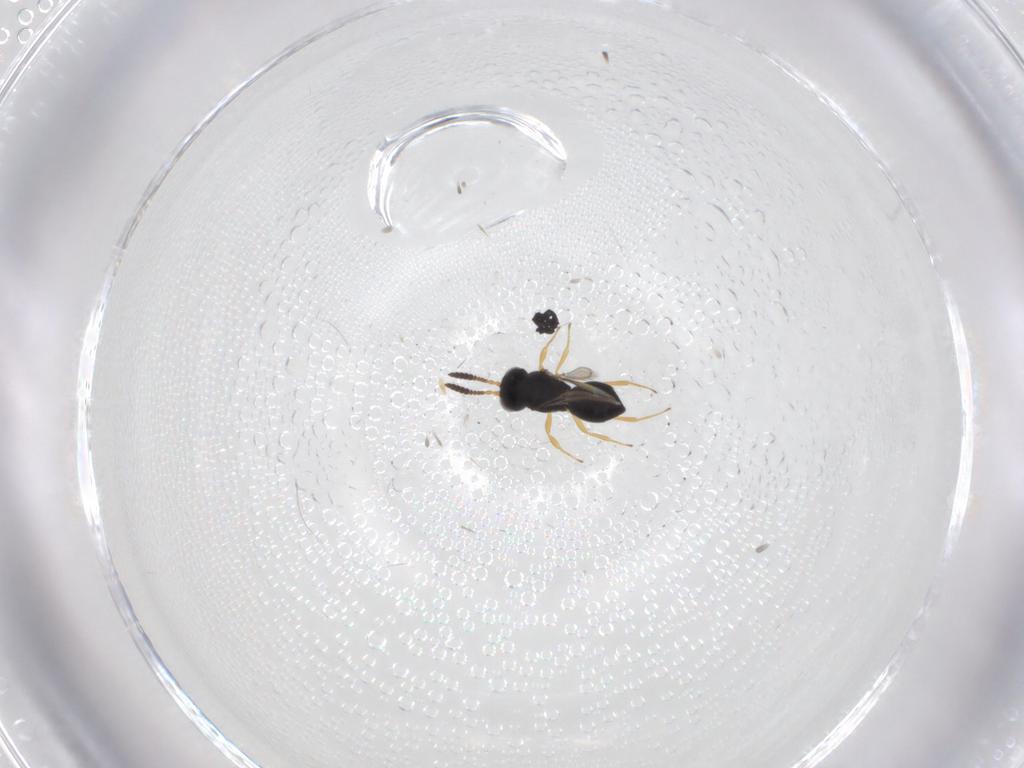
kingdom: Animalia
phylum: Arthropoda
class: Insecta
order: Hymenoptera
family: Scelionidae
